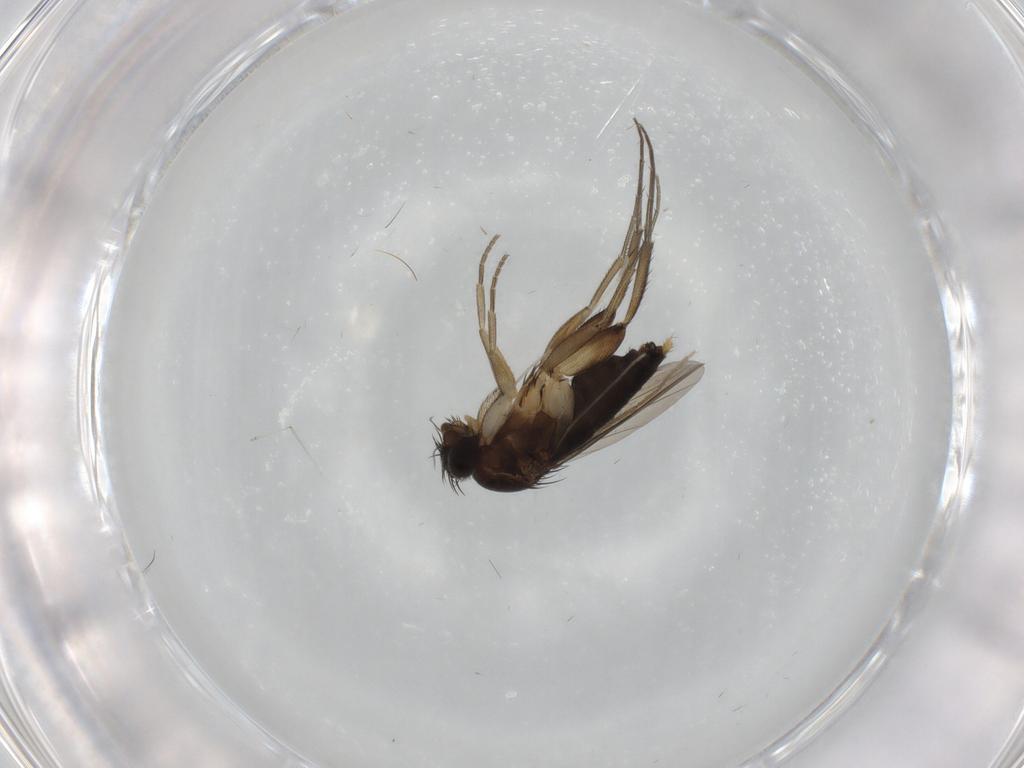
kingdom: Animalia
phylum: Arthropoda
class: Insecta
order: Diptera
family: Phoridae
